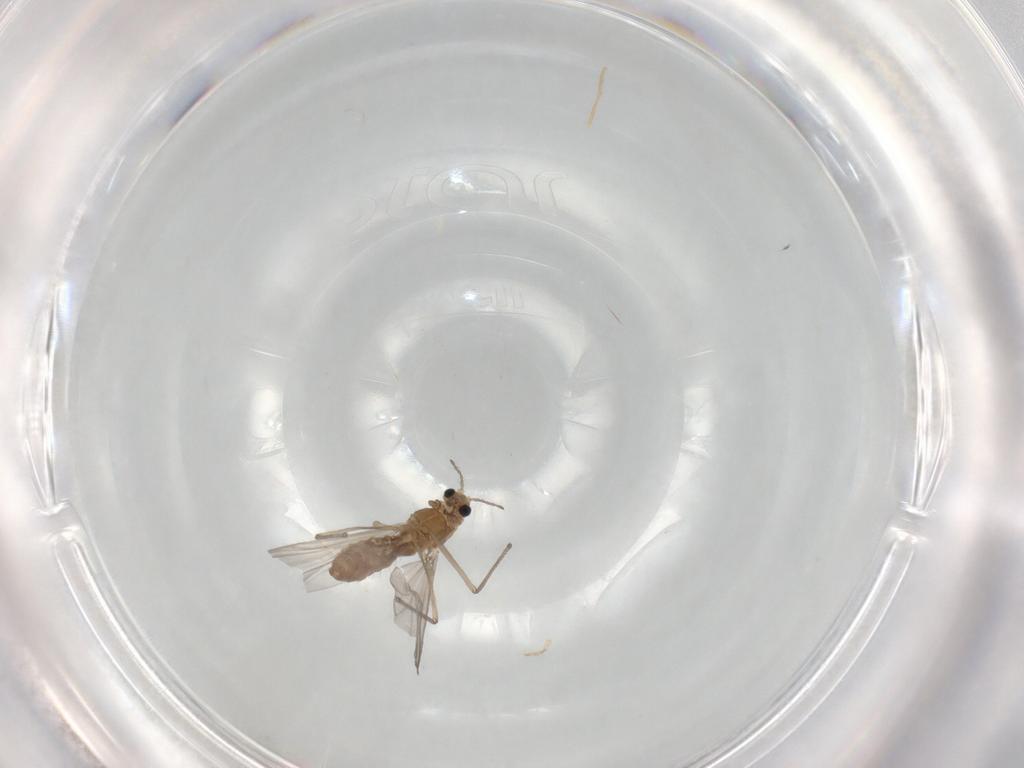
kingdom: Animalia
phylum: Arthropoda
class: Insecta
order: Diptera
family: Chironomidae
